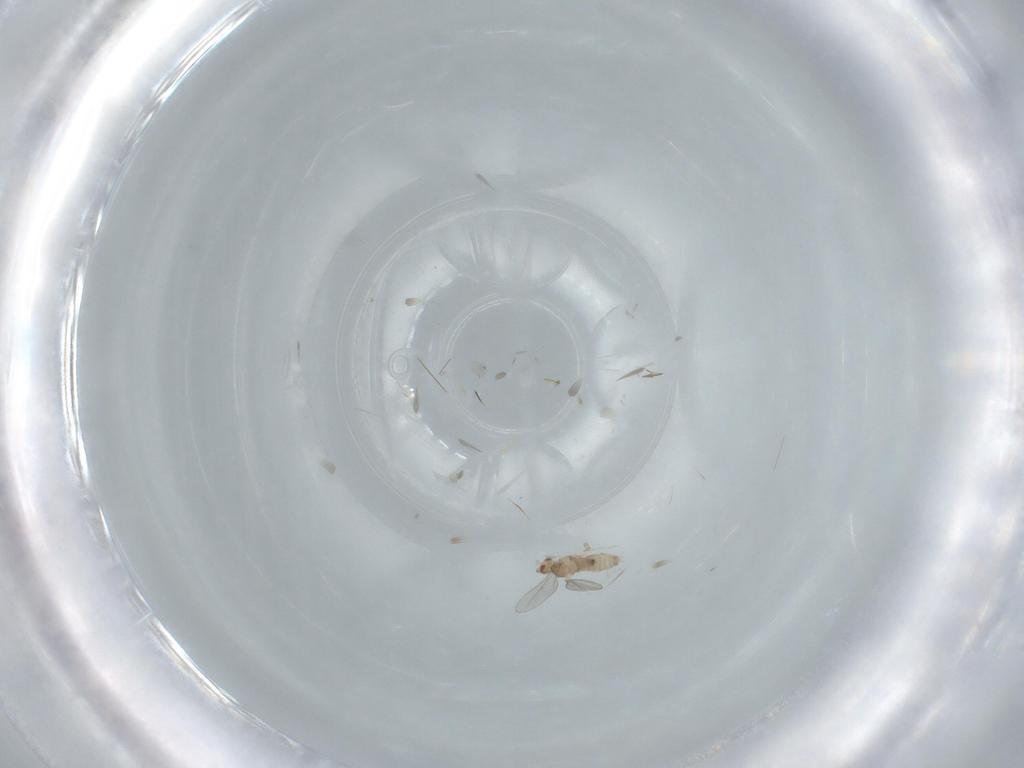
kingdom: Animalia
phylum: Arthropoda
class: Insecta
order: Diptera
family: Cecidomyiidae
